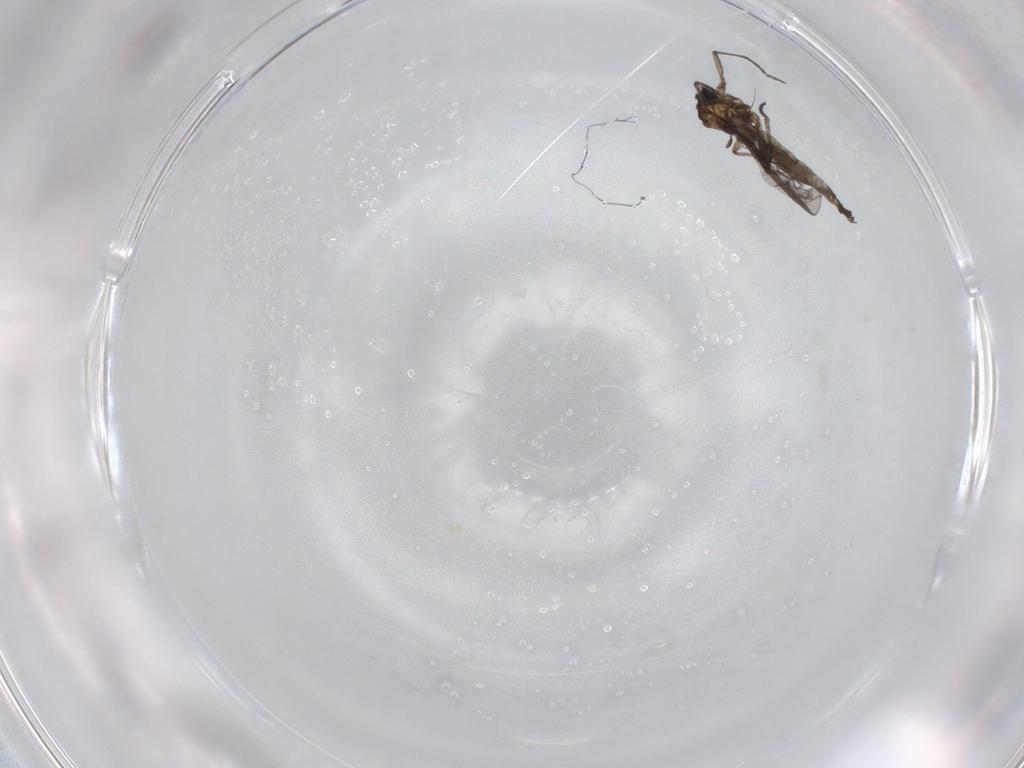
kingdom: Animalia
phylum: Arthropoda
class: Insecta
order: Diptera
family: Sciaridae
